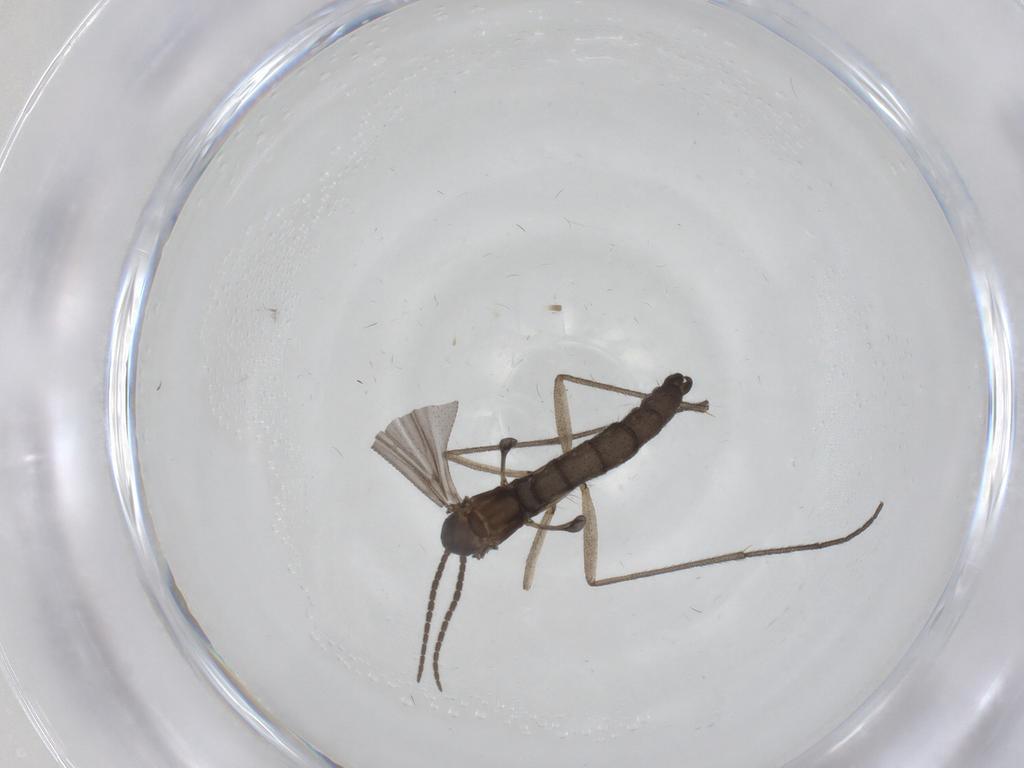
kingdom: Animalia
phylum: Arthropoda
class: Insecta
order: Diptera
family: Sciaridae
